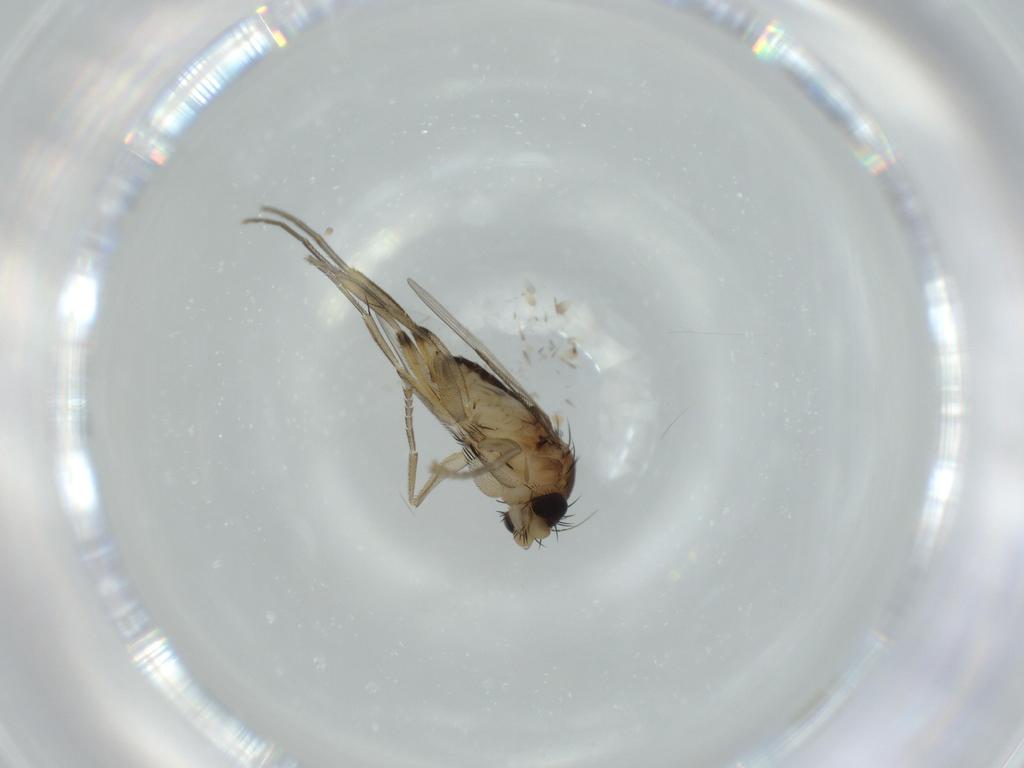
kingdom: Animalia
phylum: Arthropoda
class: Insecta
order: Diptera
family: Phoridae
